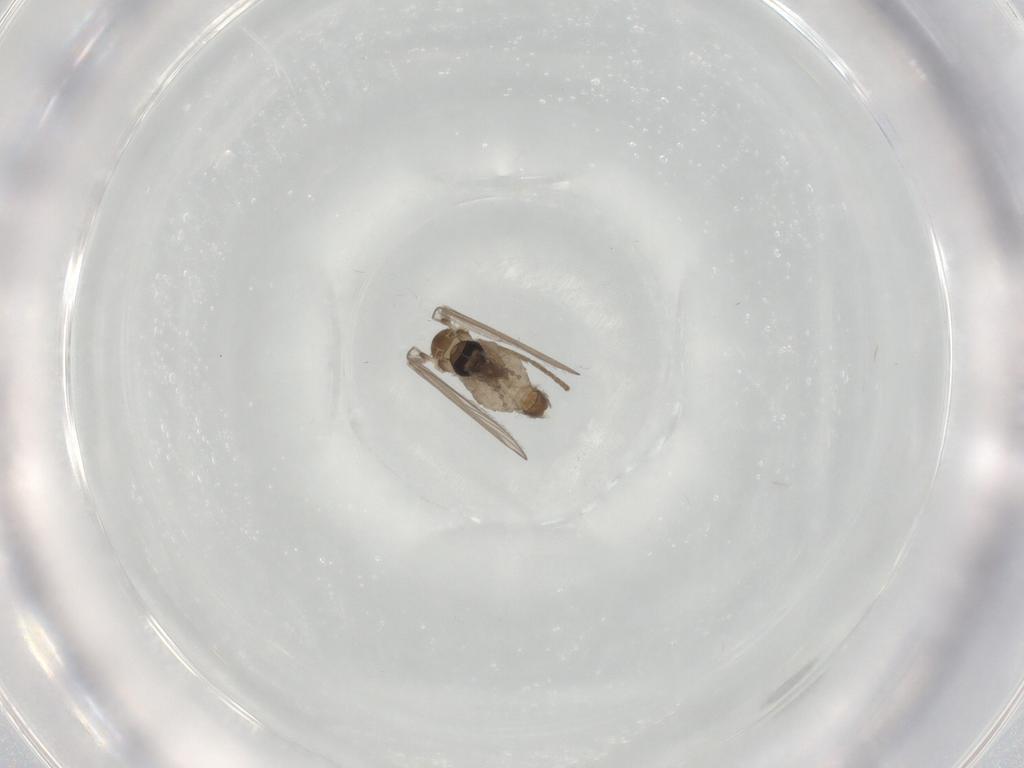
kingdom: Animalia
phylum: Arthropoda
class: Insecta
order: Diptera
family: Psychodidae
